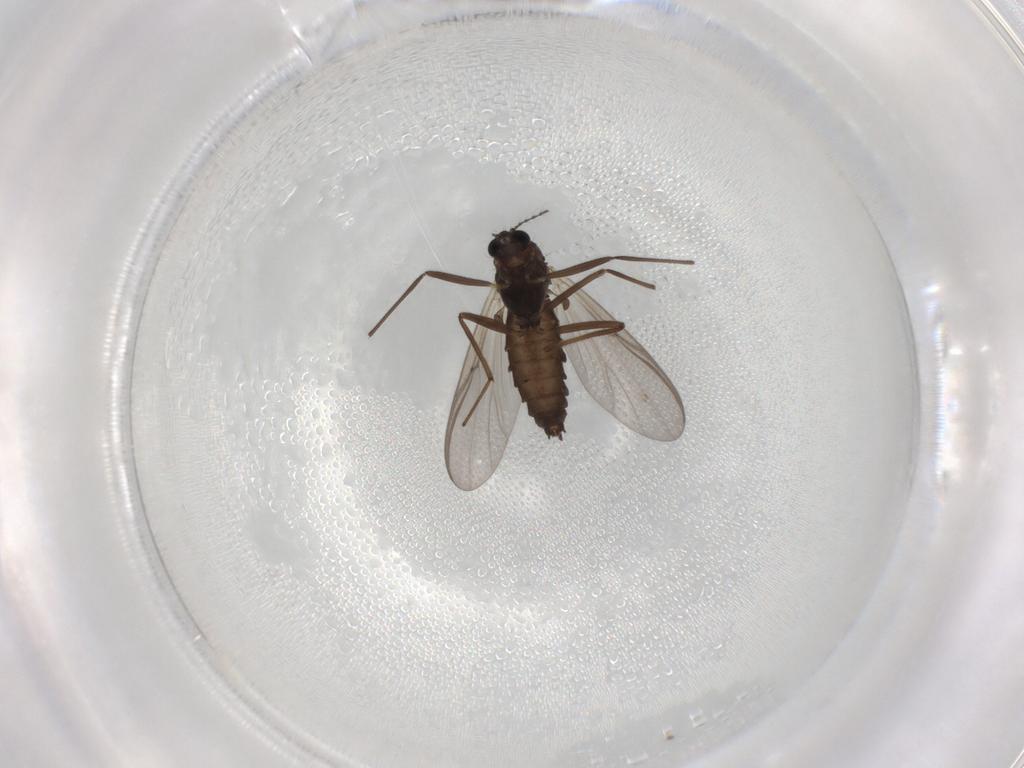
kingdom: Animalia
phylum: Arthropoda
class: Insecta
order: Diptera
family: Chironomidae
